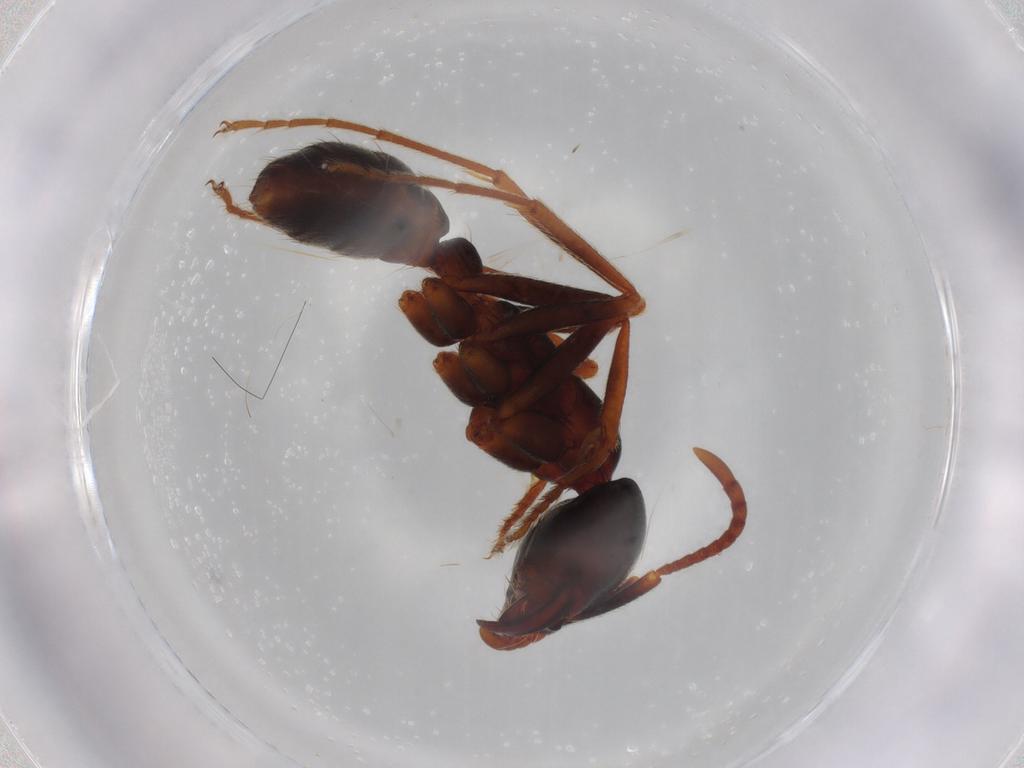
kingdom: Animalia
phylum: Arthropoda
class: Insecta
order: Hymenoptera
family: Formicidae
